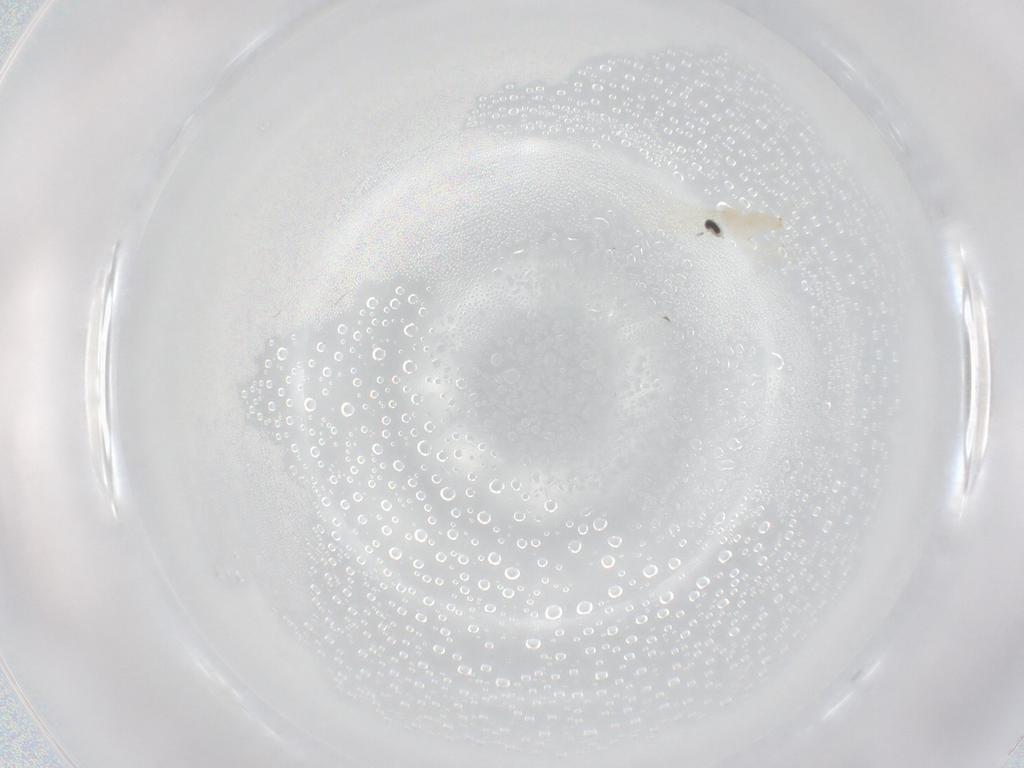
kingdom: Animalia
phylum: Arthropoda
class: Insecta
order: Diptera
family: Cecidomyiidae
